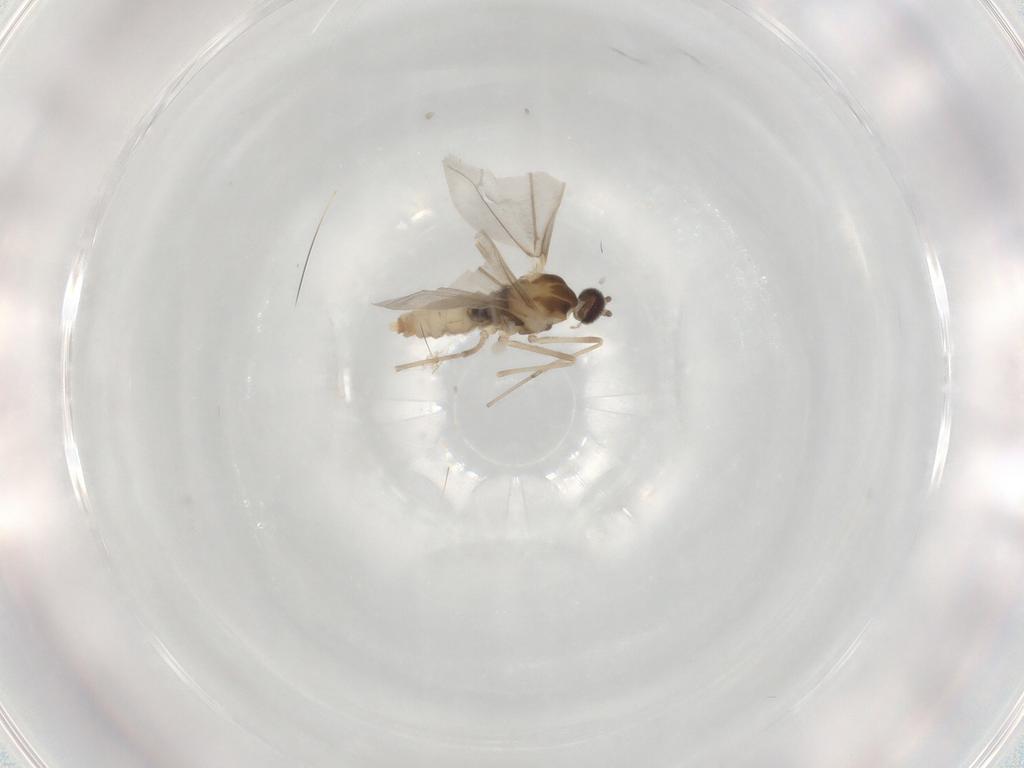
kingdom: Animalia
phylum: Arthropoda
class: Insecta
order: Diptera
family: Cecidomyiidae
